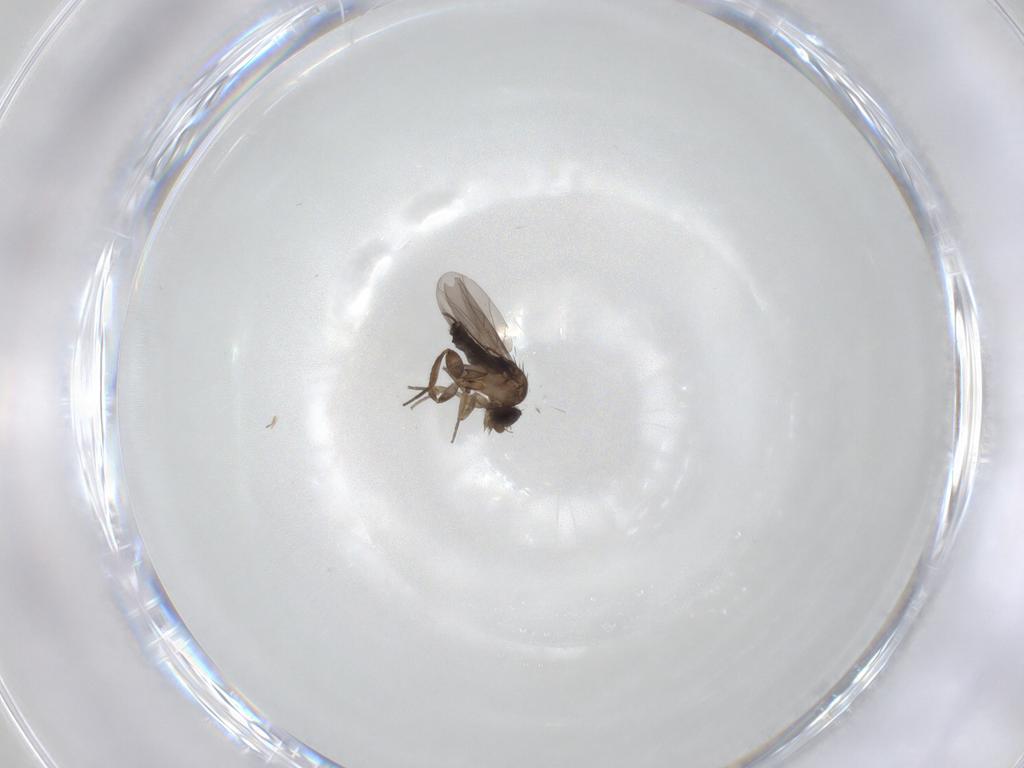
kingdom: Animalia
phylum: Arthropoda
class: Insecta
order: Diptera
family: Phoridae
